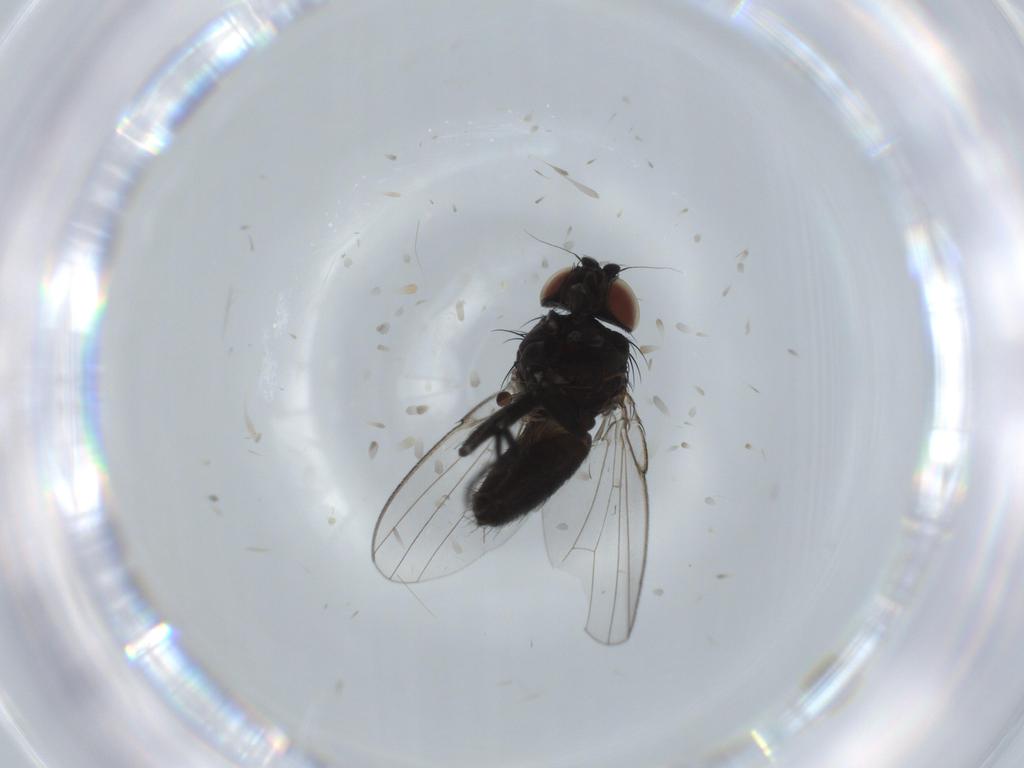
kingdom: Animalia
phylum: Arthropoda
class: Insecta
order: Diptera
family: Milichiidae
